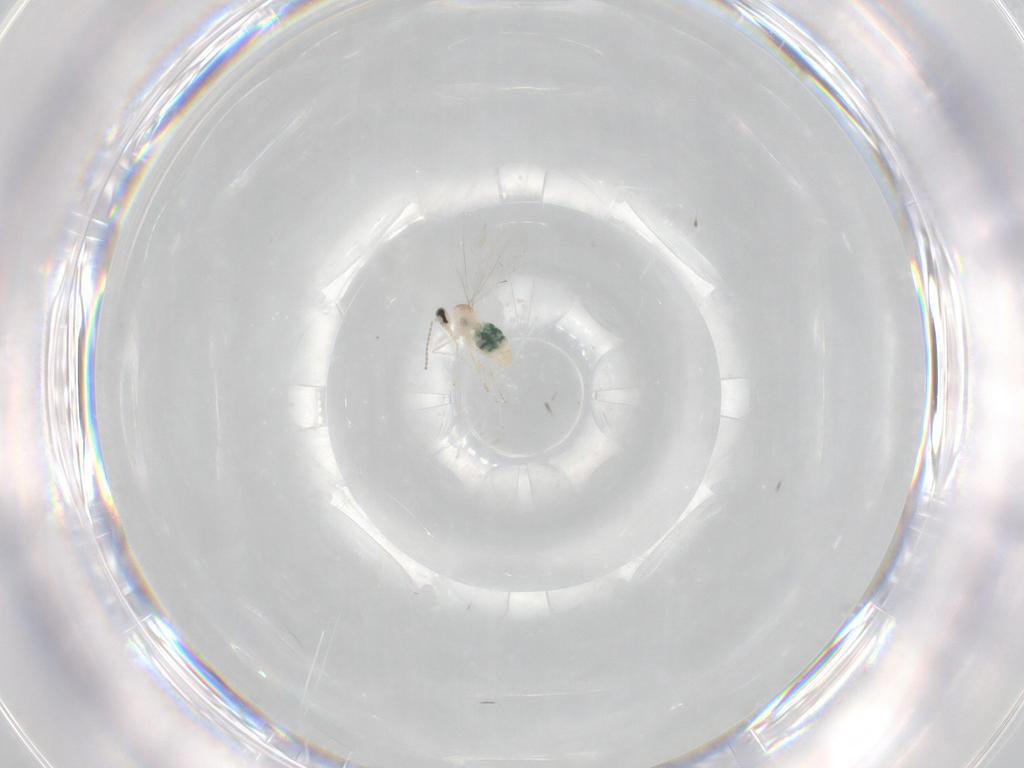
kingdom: Animalia
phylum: Arthropoda
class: Insecta
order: Diptera
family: Cecidomyiidae
